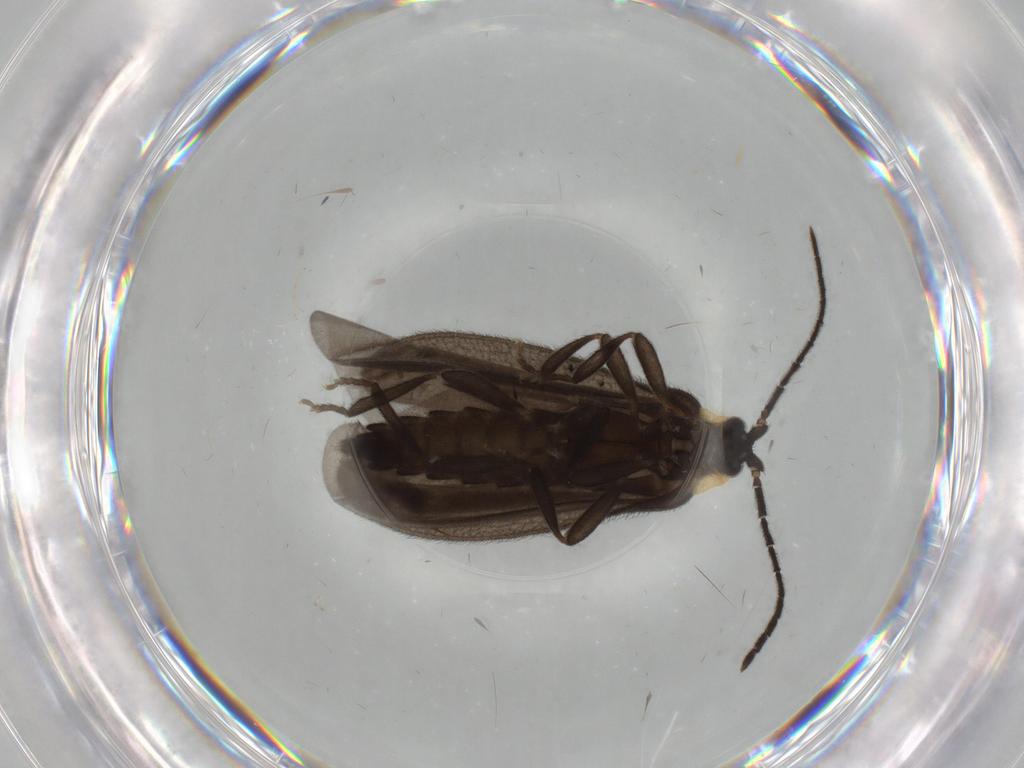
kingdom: Animalia
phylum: Arthropoda
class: Insecta
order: Coleoptera
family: Lycidae
